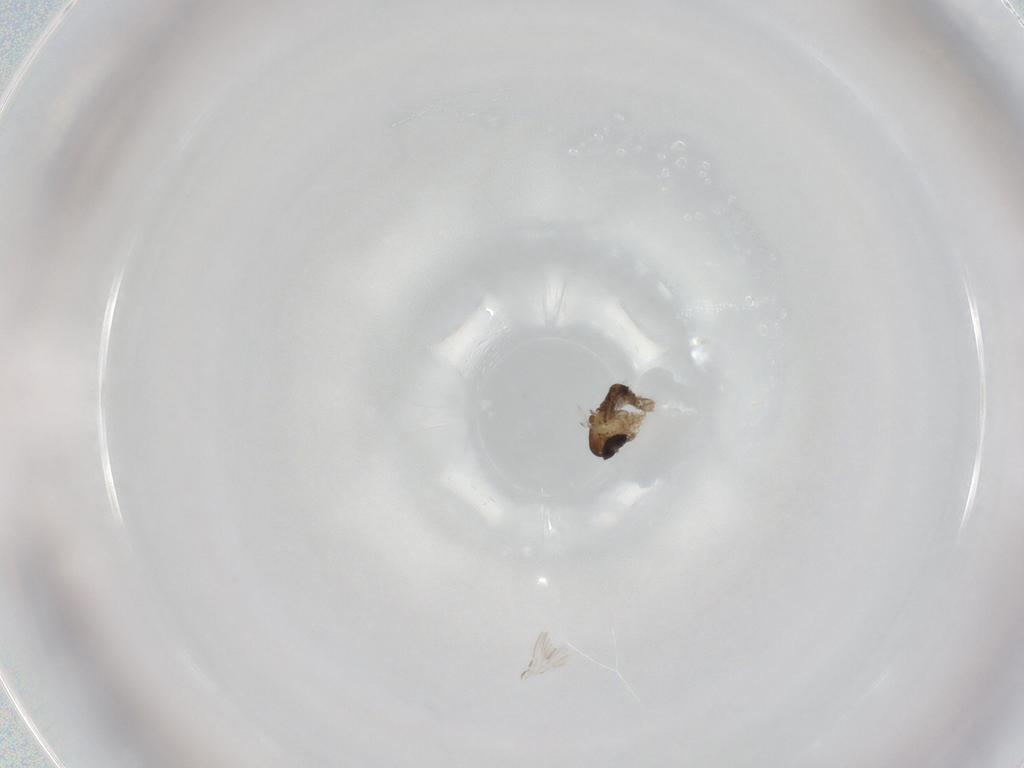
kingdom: Animalia
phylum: Arthropoda
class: Insecta
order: Diptera
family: Psychodidae
